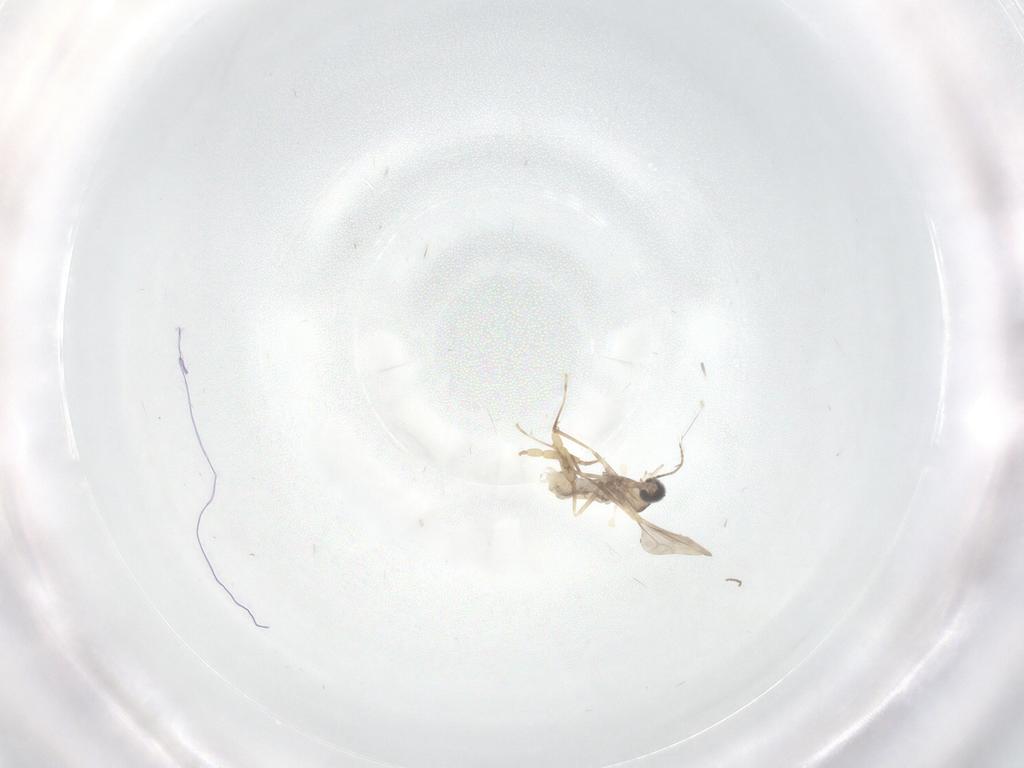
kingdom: Animalia
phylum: Arthropoda
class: Insecta
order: Diptera
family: Cecidomyiidae
